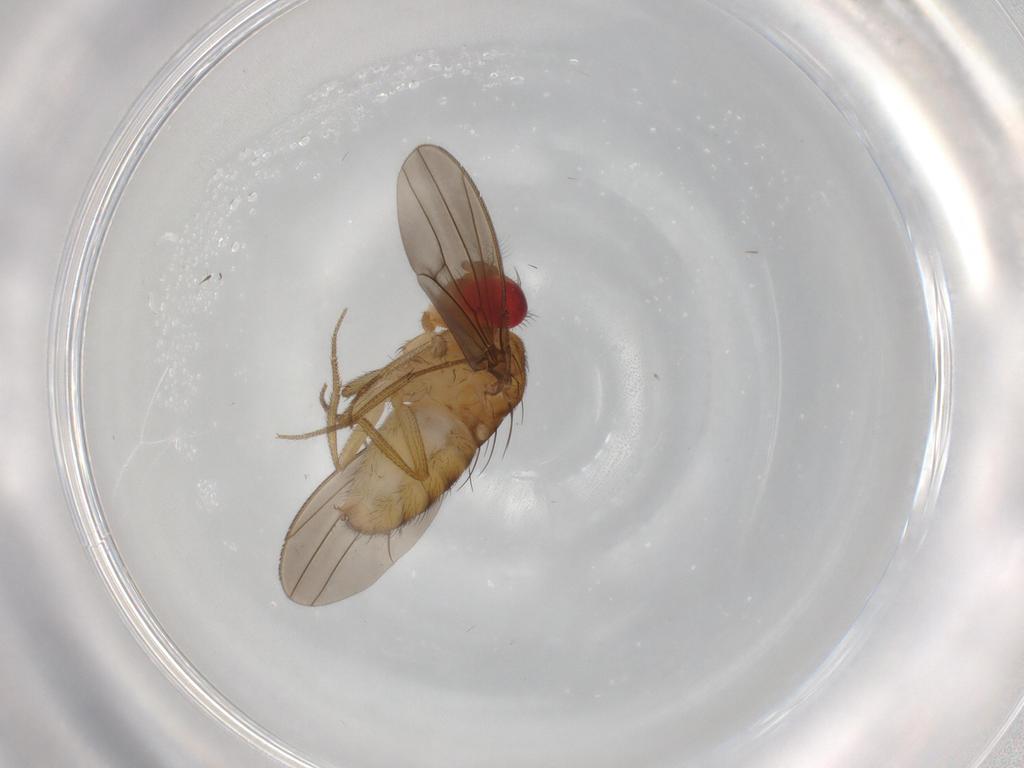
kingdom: Animalia
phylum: Arthropoda
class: Insecta
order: Diptera
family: Drosophilidae
